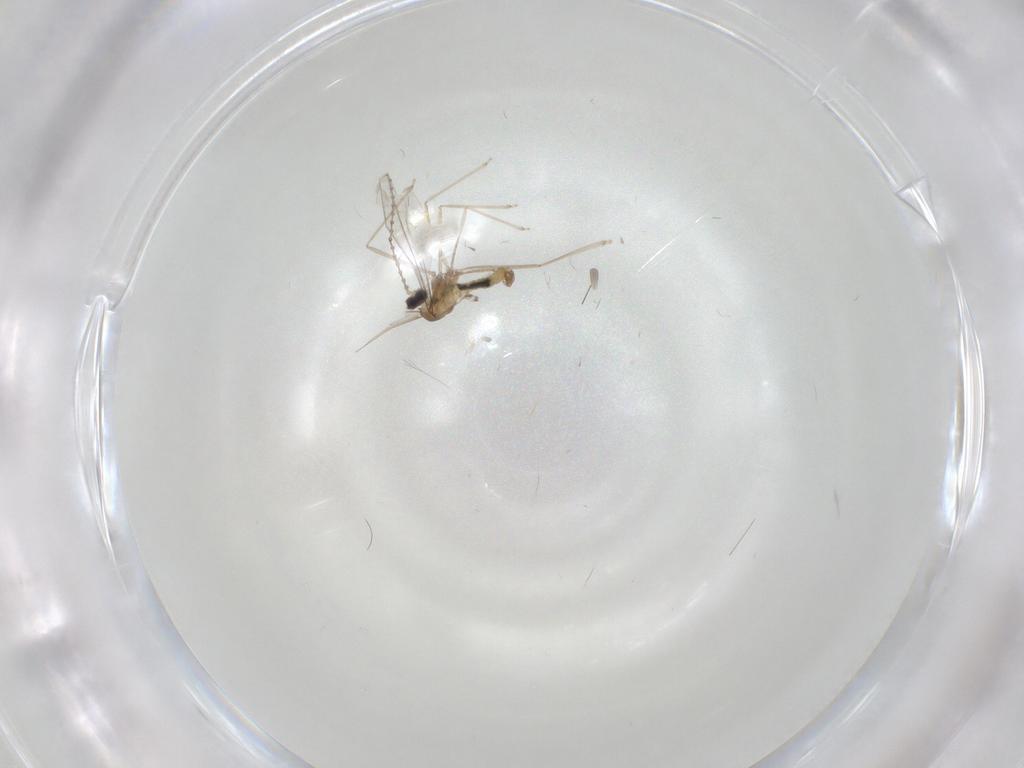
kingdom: Animalia
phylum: Arthropoda
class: Insecta
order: Diptera
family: Cecidomyiidae
